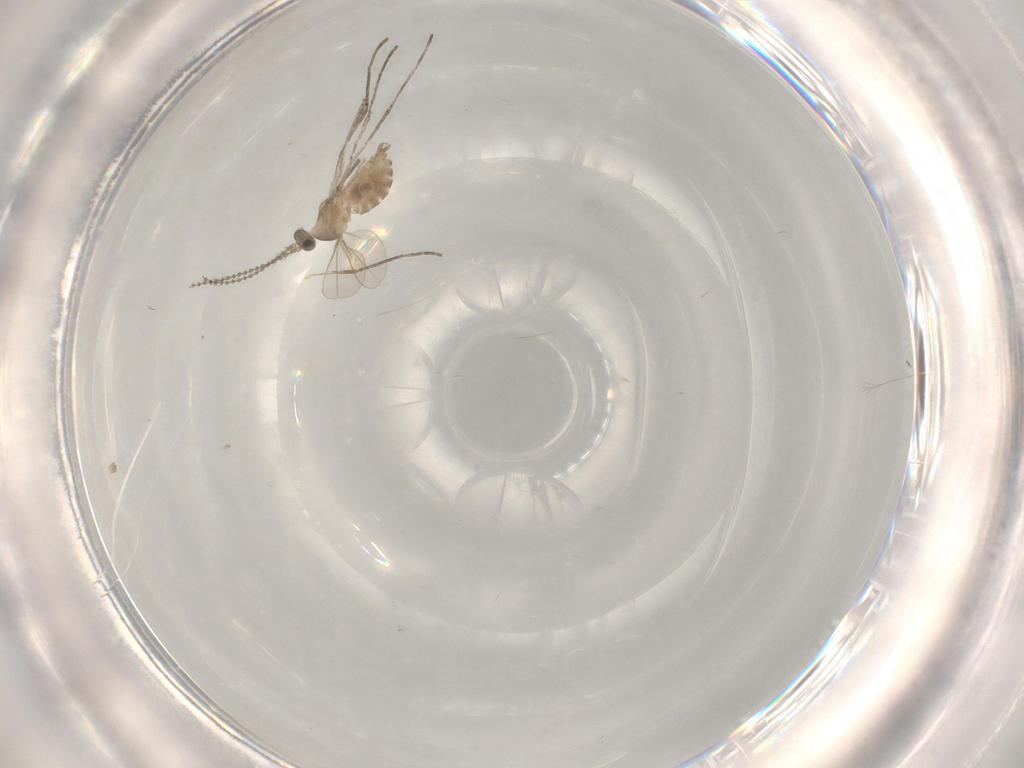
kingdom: Animalia
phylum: Arthropoda
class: Insecta
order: Diptera
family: Cecidomyiidae
